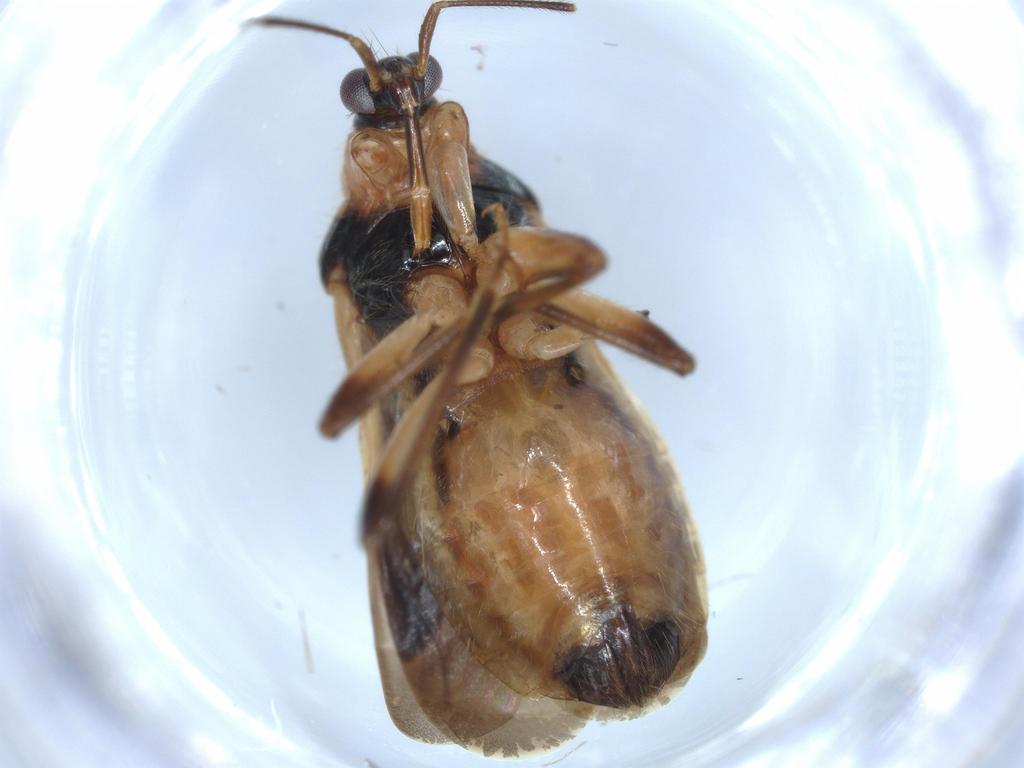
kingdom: Animalia
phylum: Arthropoda
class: Insecta
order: Hemiptera
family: Nabidae
